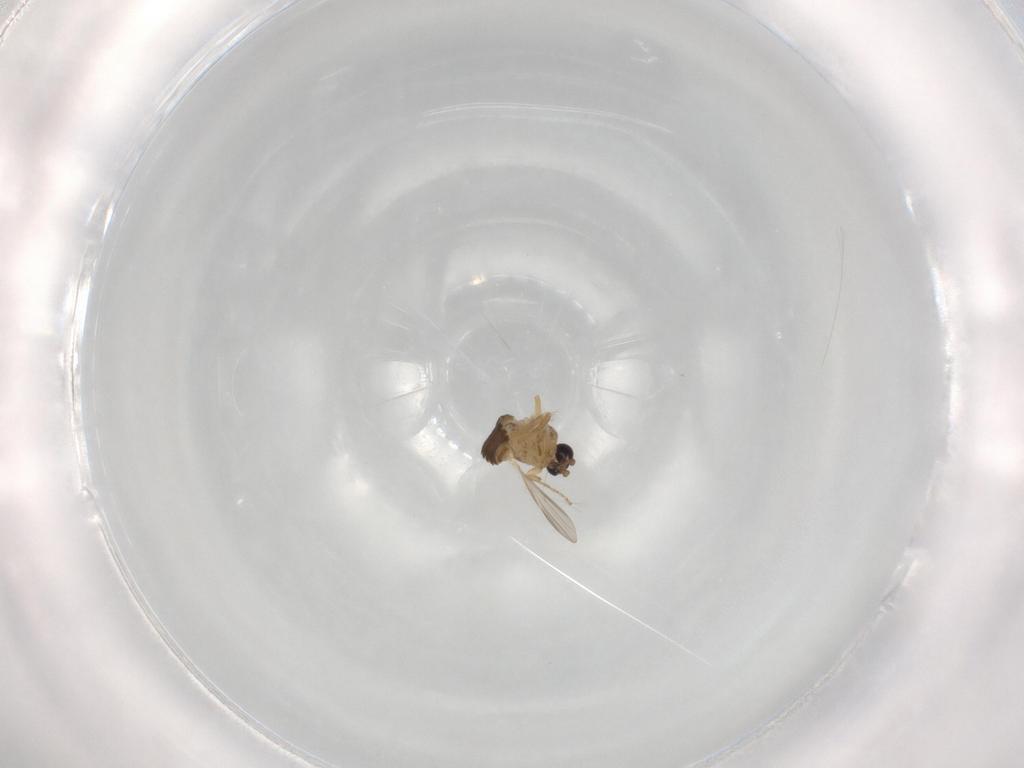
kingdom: Animalia
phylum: Arthropoda
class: Insecta
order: Diptera
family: Ceratopogonidae
